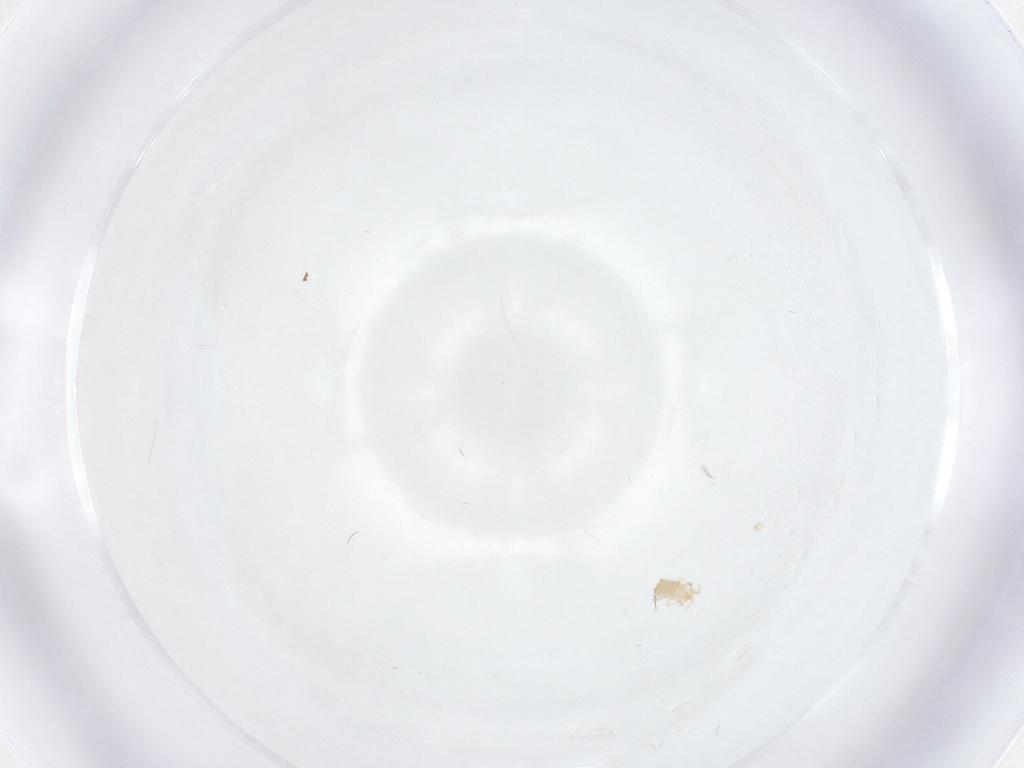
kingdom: Animalia
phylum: Arthropoda
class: Arachnida
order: Mesostigmata
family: Ascidae
